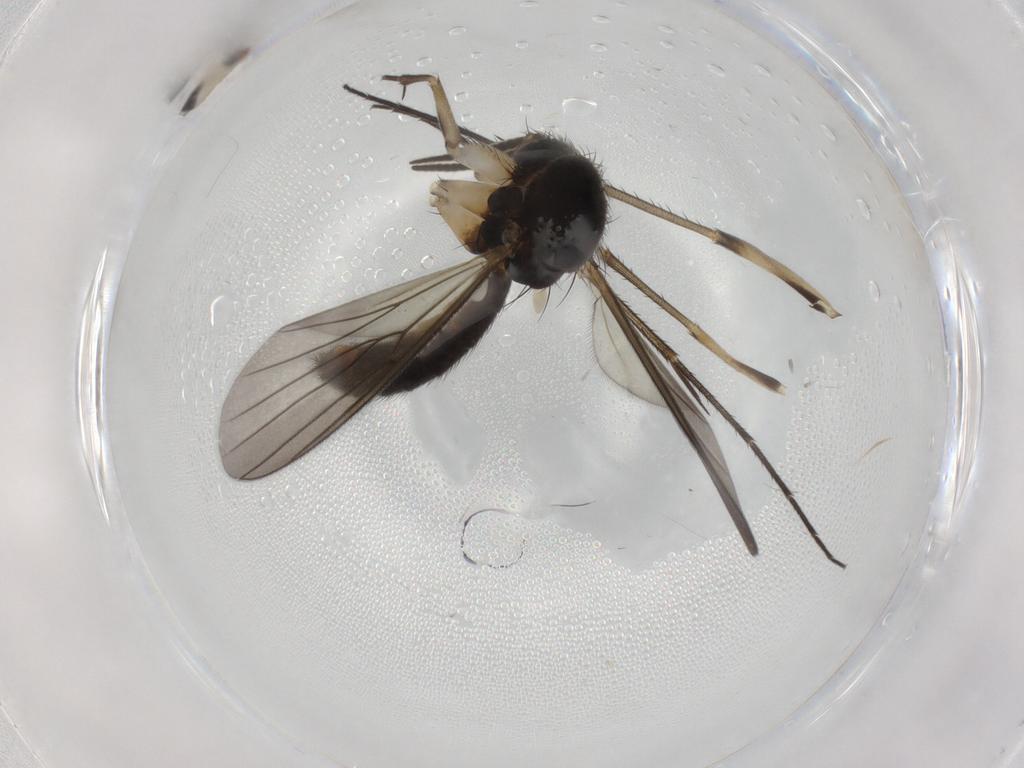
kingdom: Animalia
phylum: Arthropoda
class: Insecta
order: Diptera
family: Mycetophilidae
